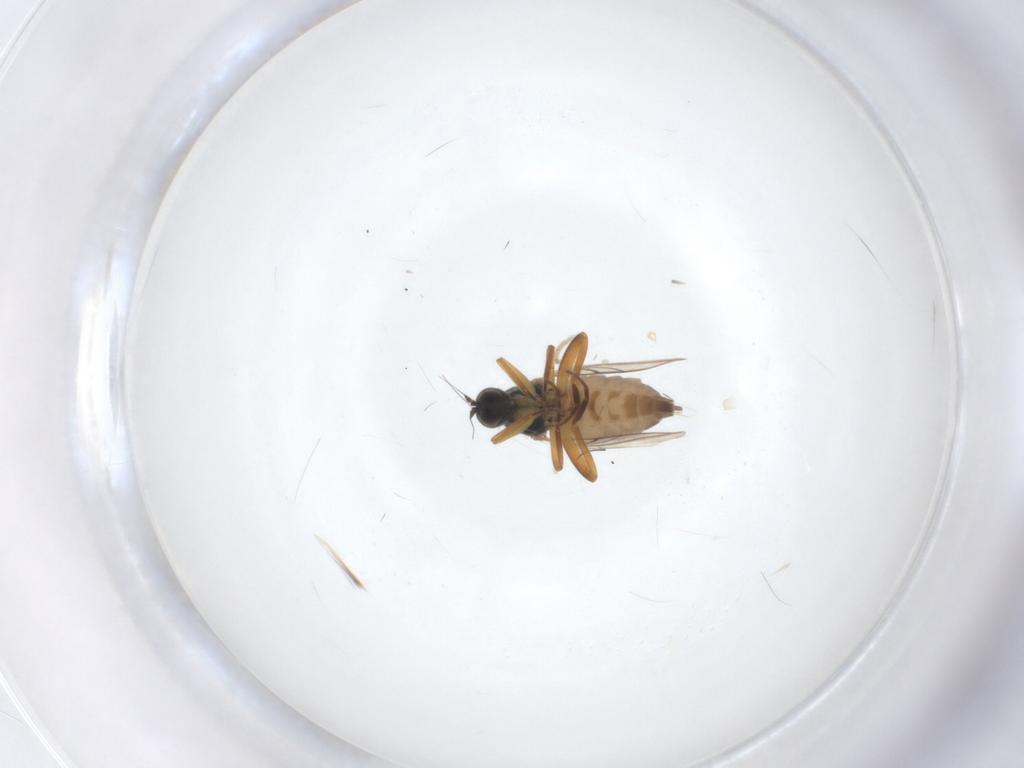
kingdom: Animalia
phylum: Arthropoda
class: Insecta
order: Diptera
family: Hybotidae
